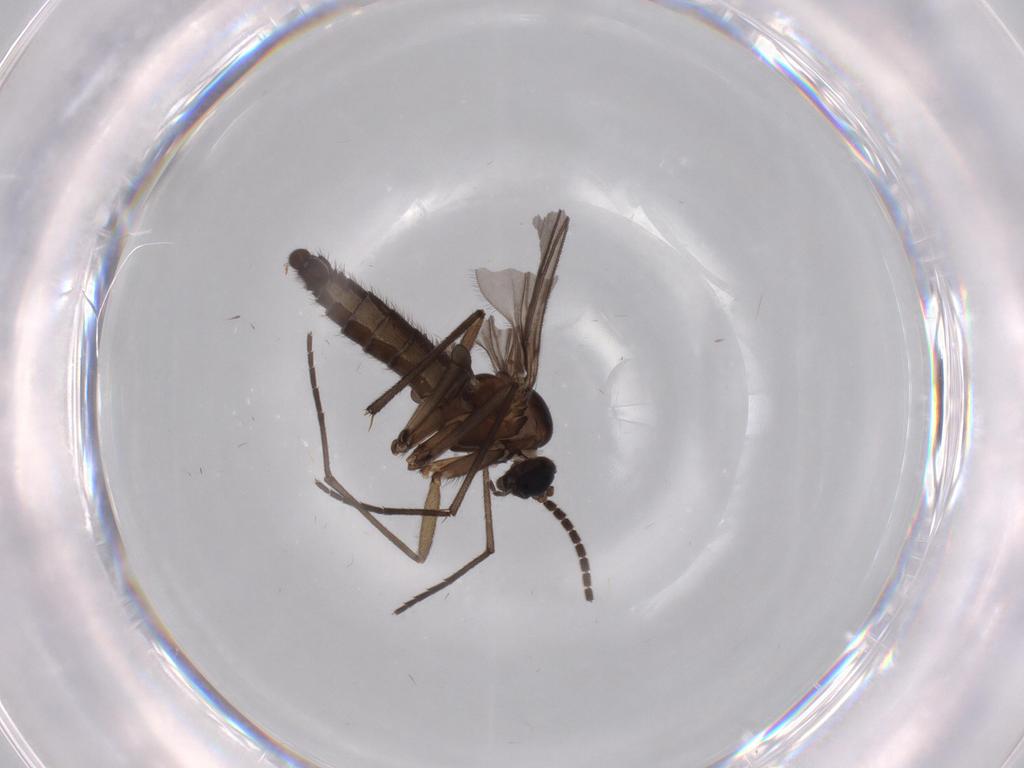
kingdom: Animalia
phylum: Arthropoda
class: Insecta
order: Diptera
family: Sciaridae
